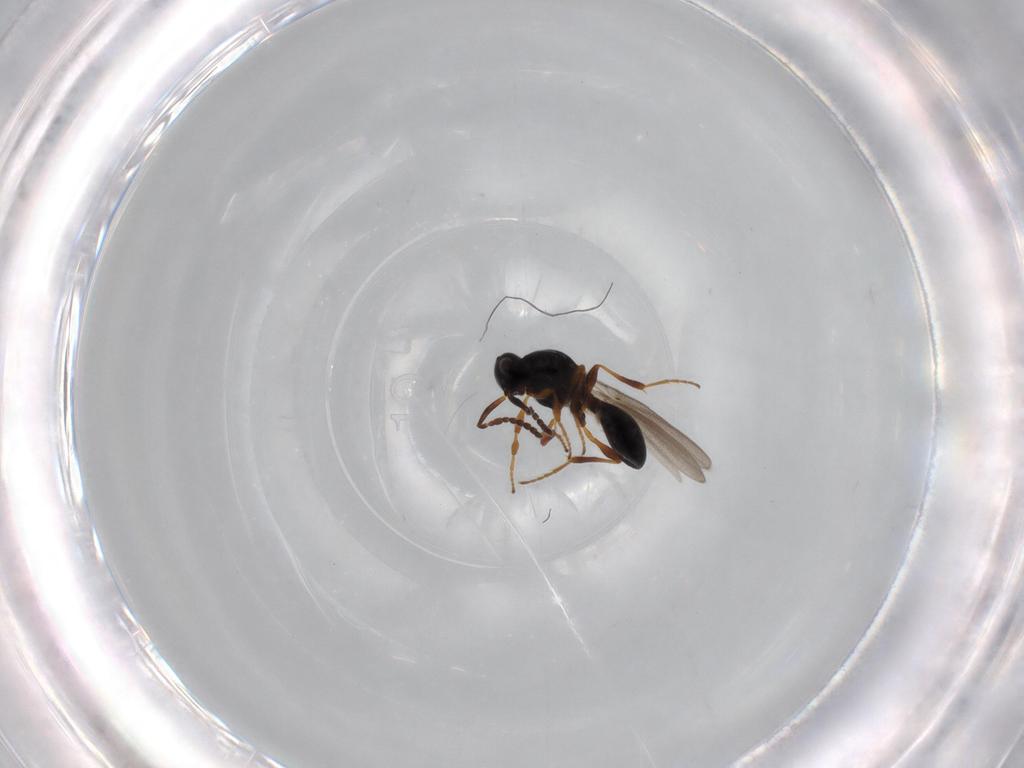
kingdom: Animalia
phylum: Arthropoda
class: Insecta
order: Hymenoptera
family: Platygastridae
